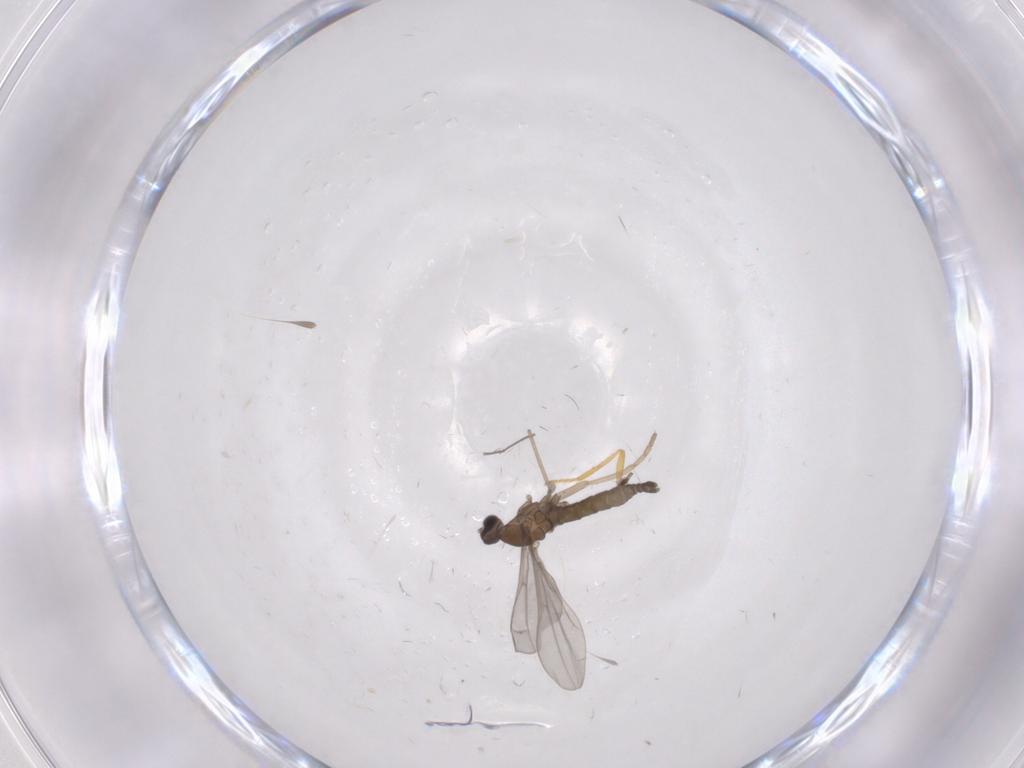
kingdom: Animalia
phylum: Arthropoda
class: Insecta
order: Diptera
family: Cecidomyiidae
